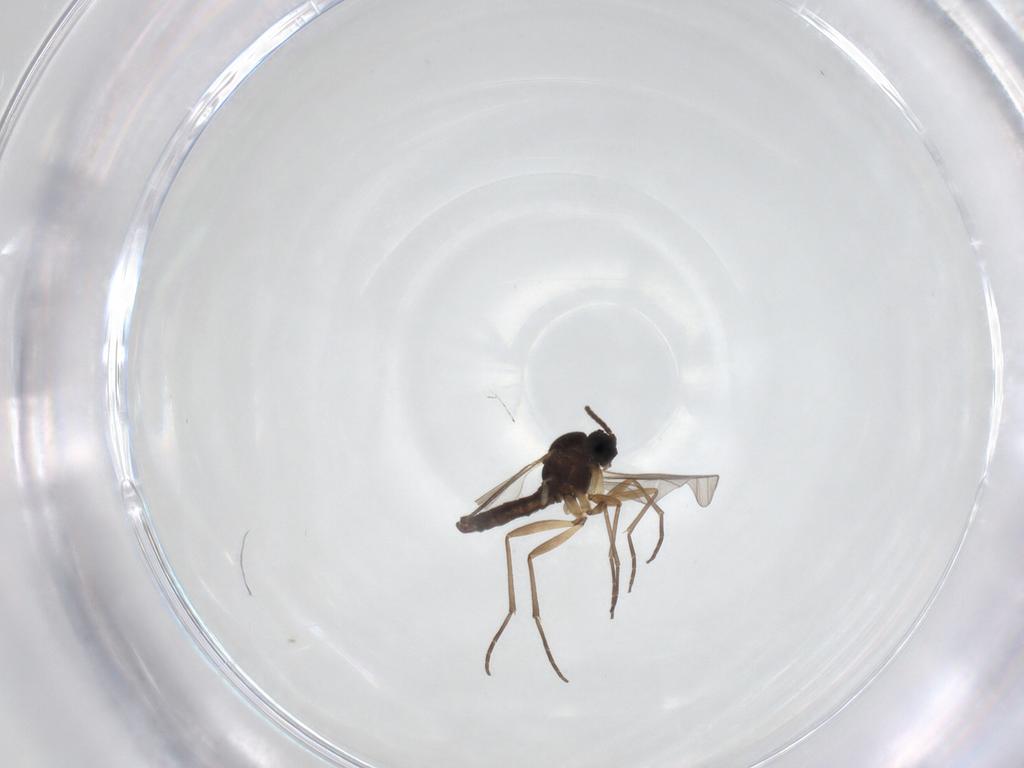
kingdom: Animalia
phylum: Arthropoda
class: Insecta
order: Diptera
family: Sciaridae
